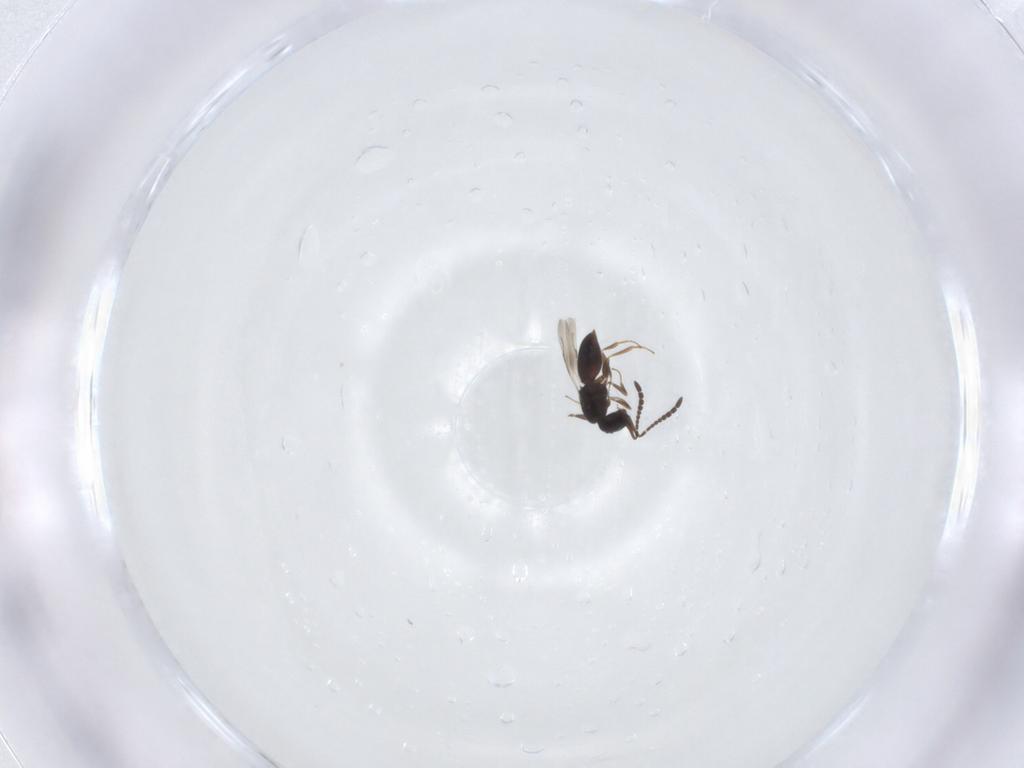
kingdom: Animalia
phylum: Arthropoda
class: Insecta
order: Hymenoptera
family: Ceraphronidae
